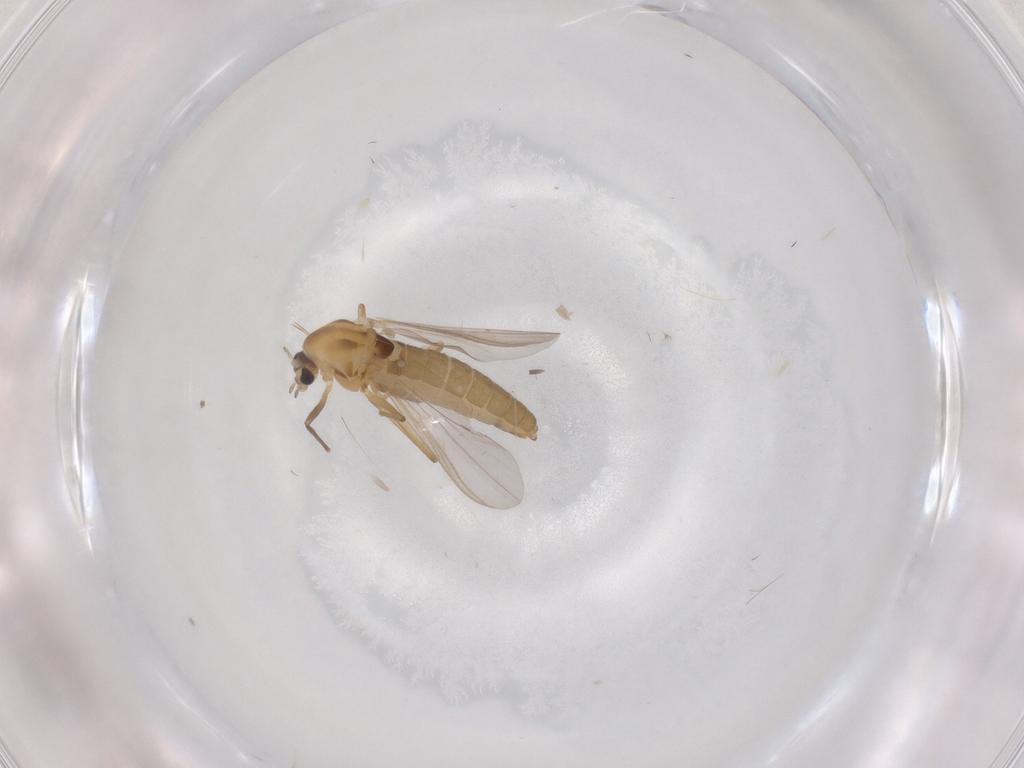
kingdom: Animalia
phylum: Arthropoda
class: Insecta
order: Diptera
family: Chironomidae
